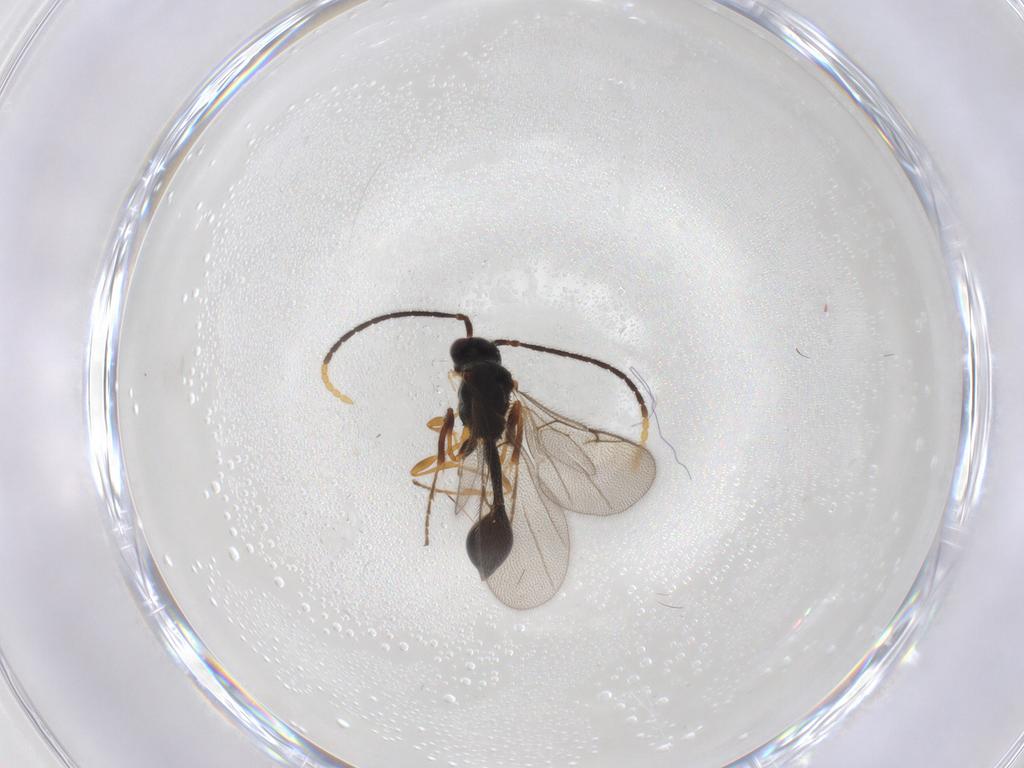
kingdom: Animalia
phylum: Arthropoda
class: Insecta
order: Hymenoptera
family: Diapriidae
